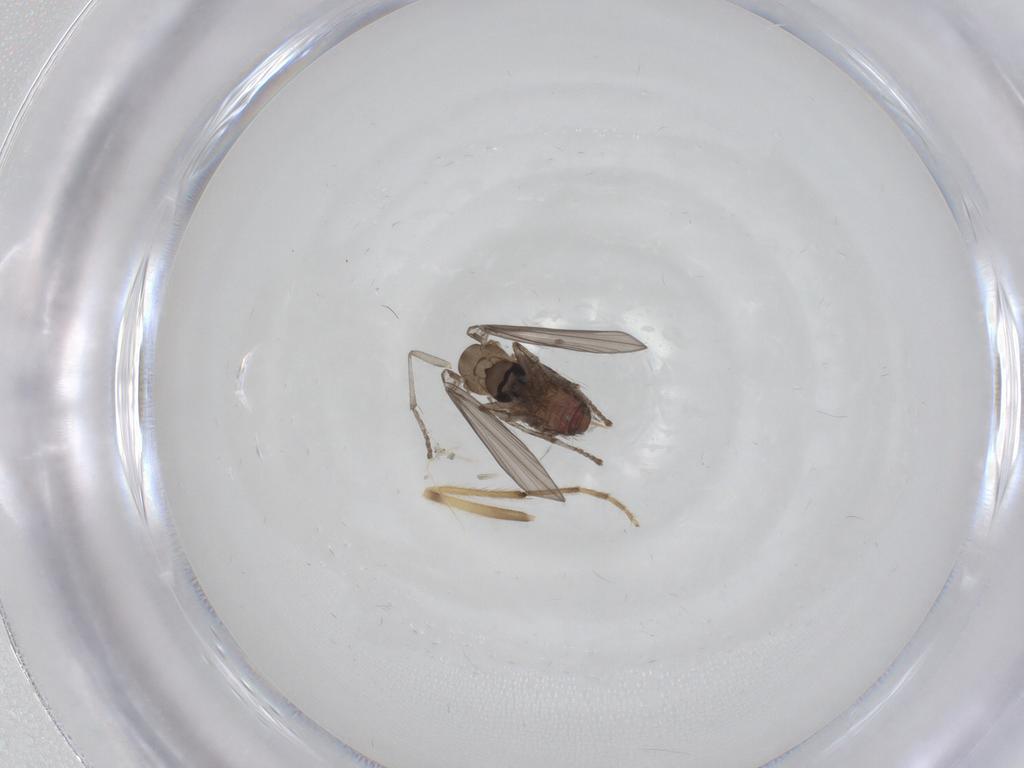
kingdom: Animalia
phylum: Arthropoda
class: Insecta
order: Diptera
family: Psychodidae
